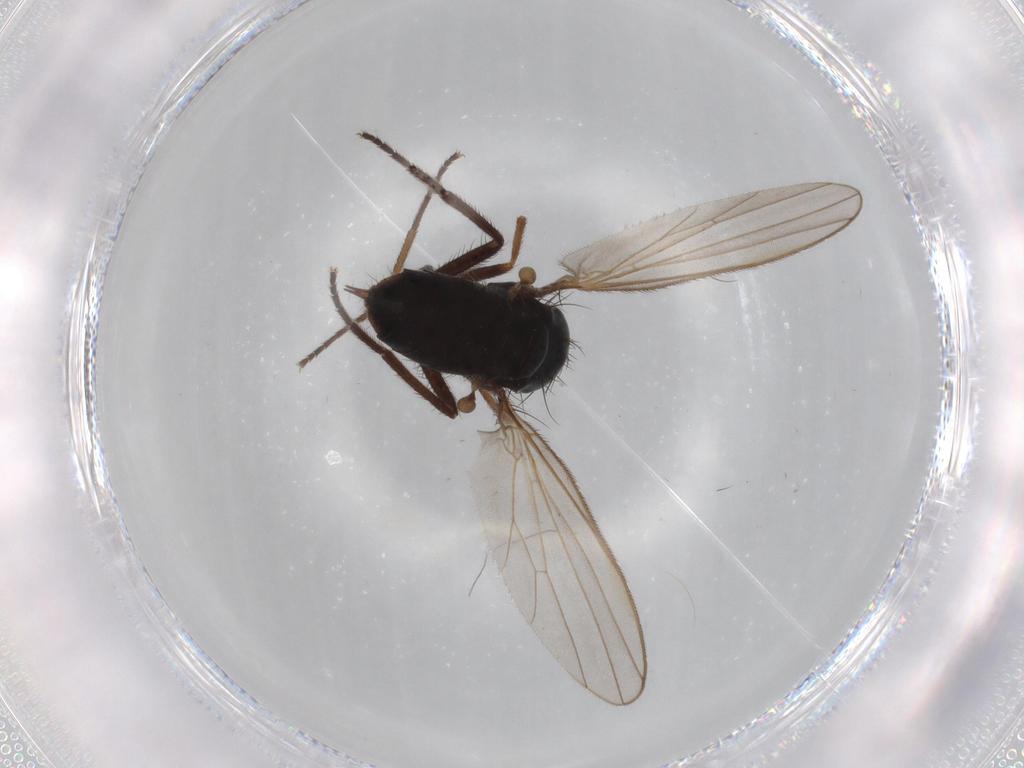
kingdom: Animalia
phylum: Arthropoda
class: Insecta
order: Diptera
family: Dolichopodidae
